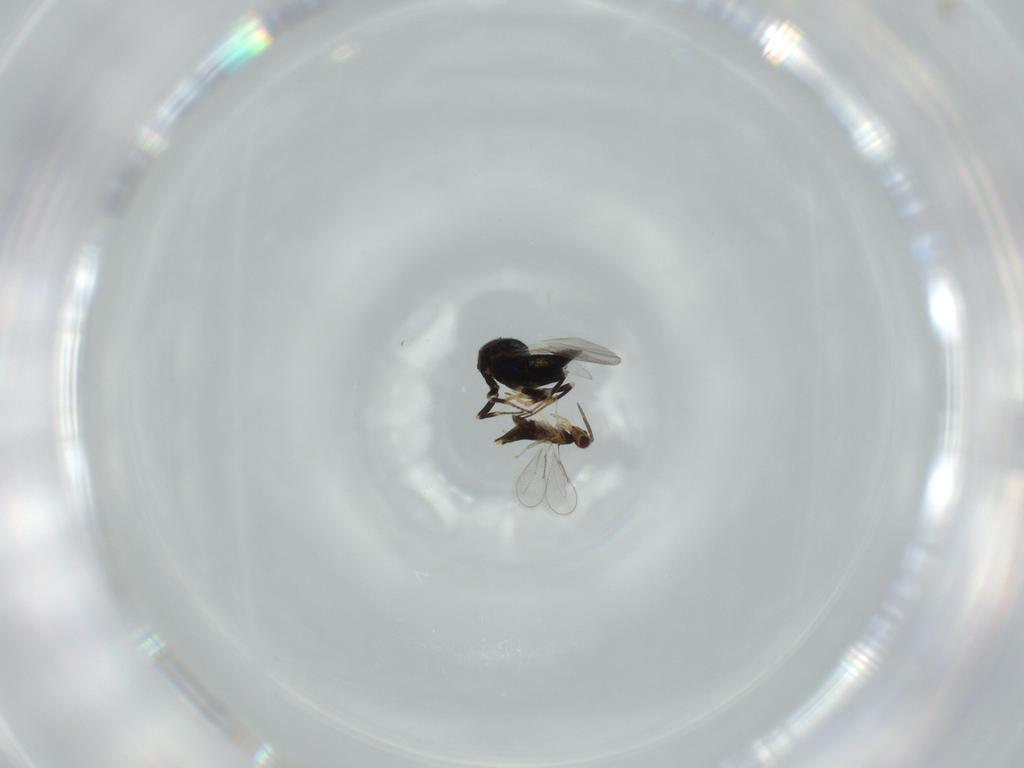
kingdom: Animalia
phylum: Arthropoda
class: Insecta
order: Hymenoptera
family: Aphelinidae
